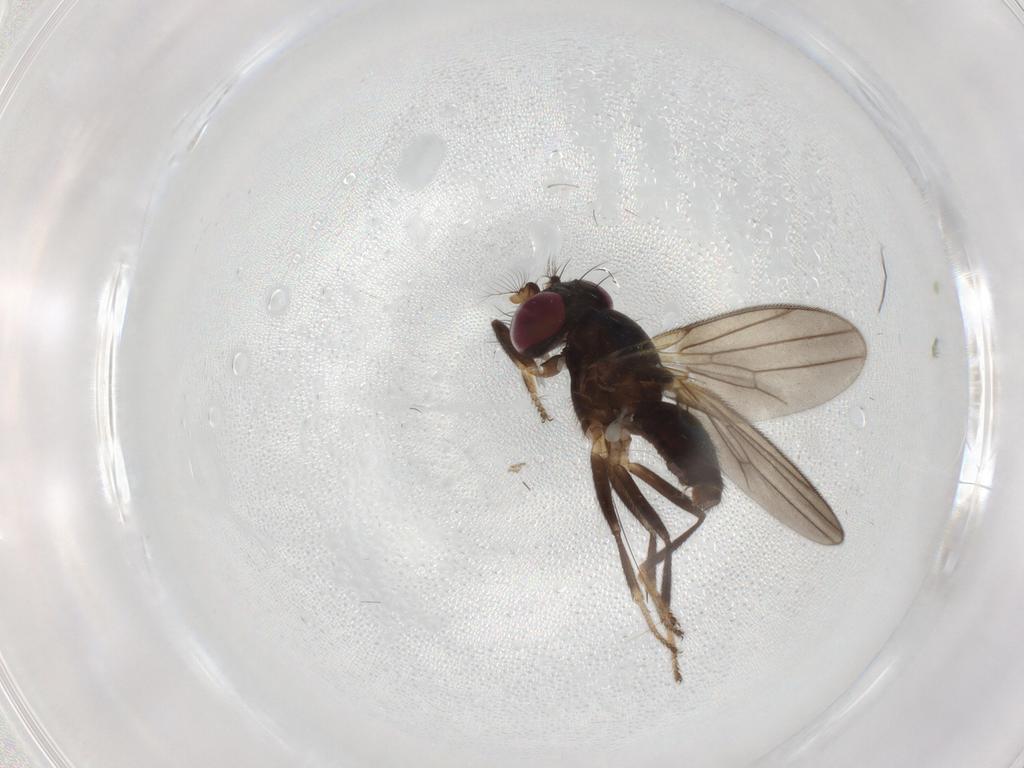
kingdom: Animalia
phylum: Arthropoda
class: Insecta
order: Diptera
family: Drosophilidae
